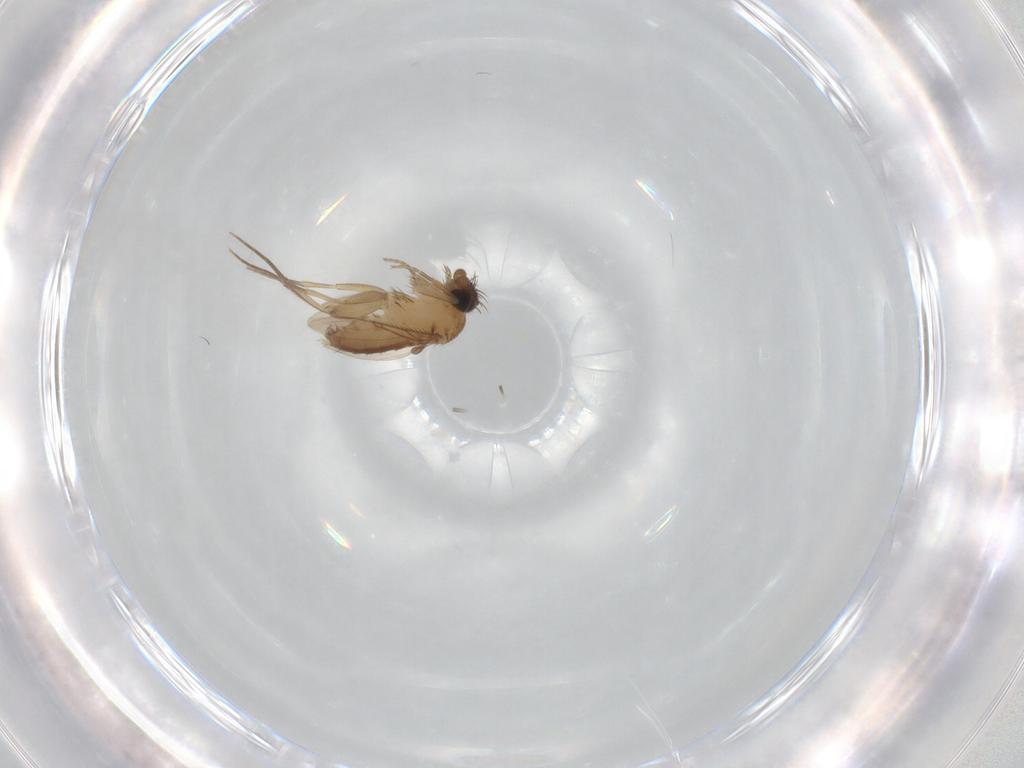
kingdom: Animalia
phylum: Arthropoda
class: Insecta
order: Diptera
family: Phoridae
